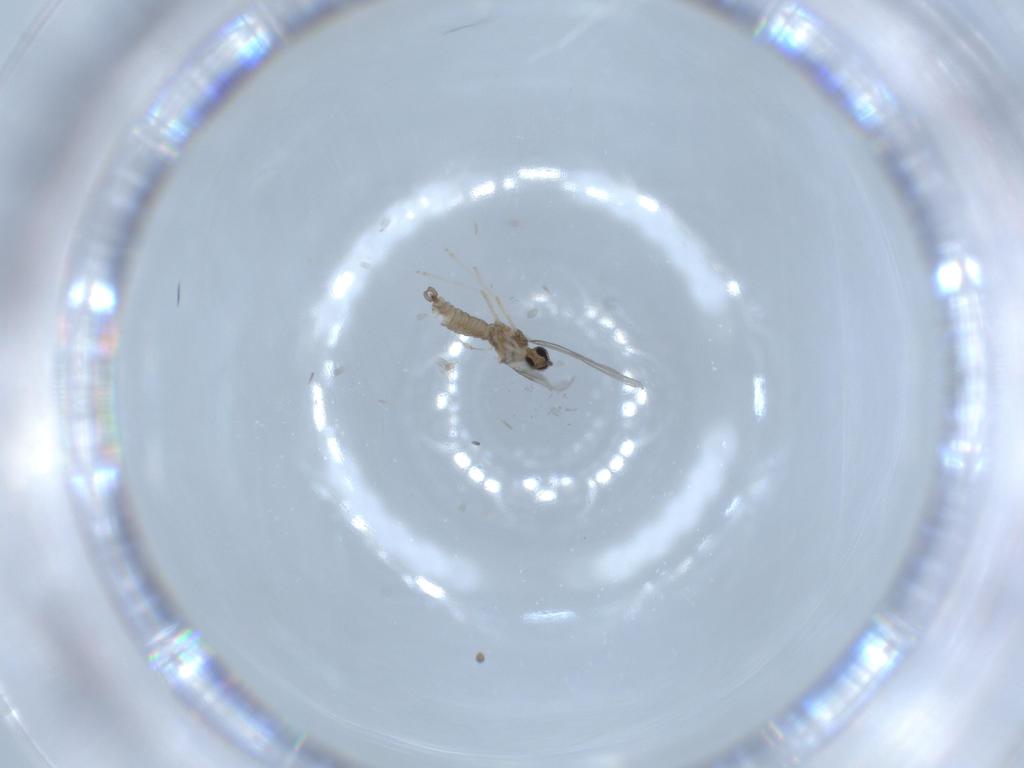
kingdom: Animalia
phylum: Arthropoda
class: Insecta
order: Diptera
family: Cecidomyiidae
